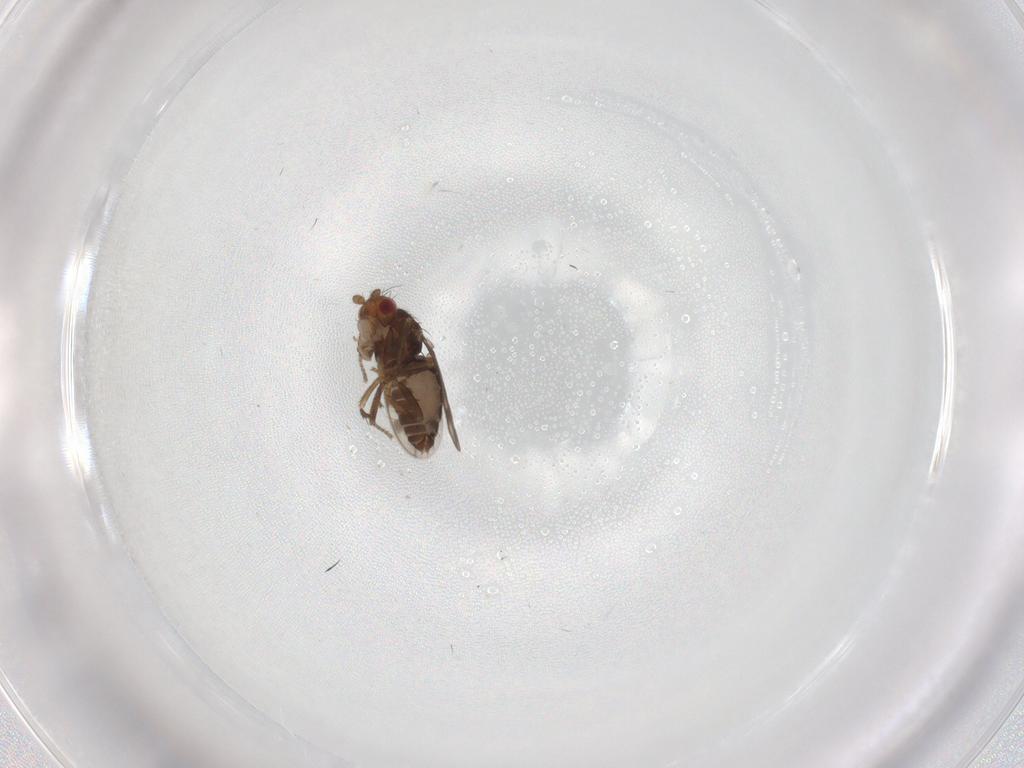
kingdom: Animalia
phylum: Arthropoda
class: Insecta
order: Diptera
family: Sphaeroceridae
